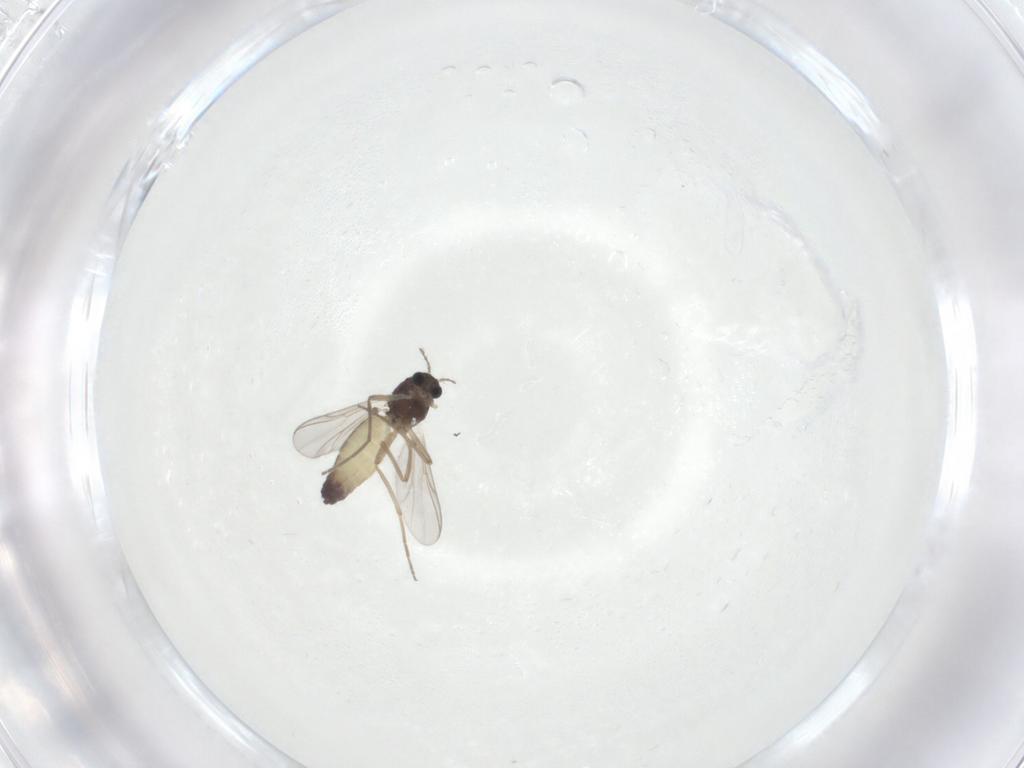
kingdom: Animalia
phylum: Arthropoda
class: Insecta
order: Diptera
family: Chironomidae
